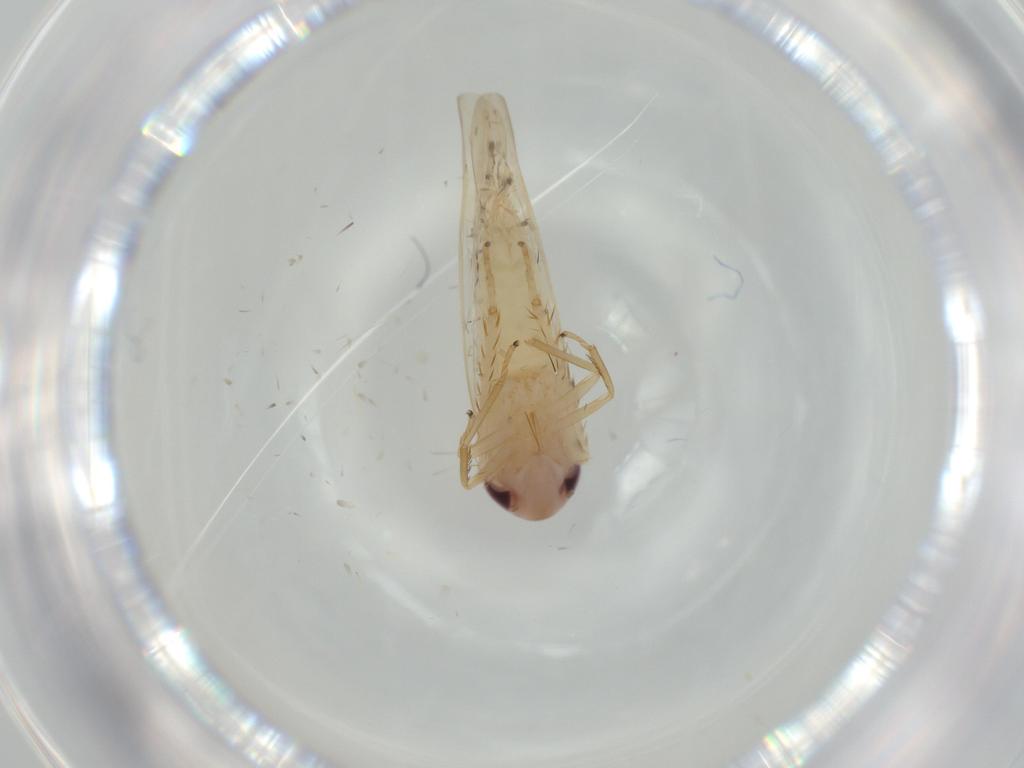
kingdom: Animalia
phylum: Arthropoda
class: Insecta
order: Hemiptera
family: Cicadellidae
